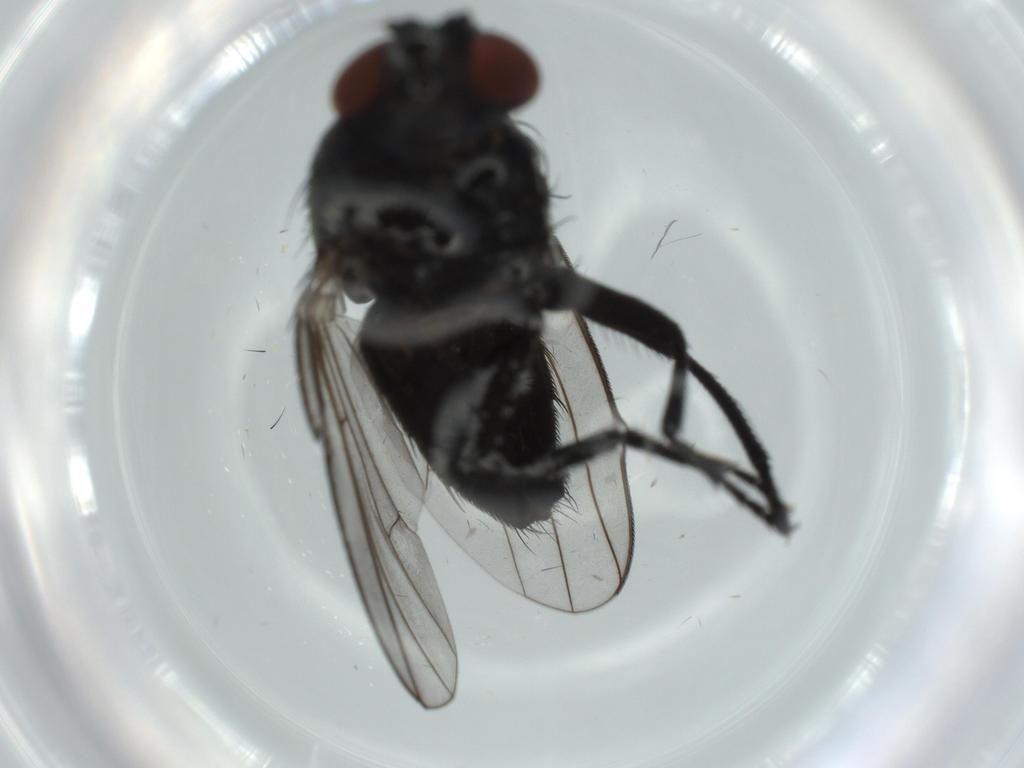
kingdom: Animalia
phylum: Arthropoda
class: Insecta
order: Diptera
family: Milichiidae
